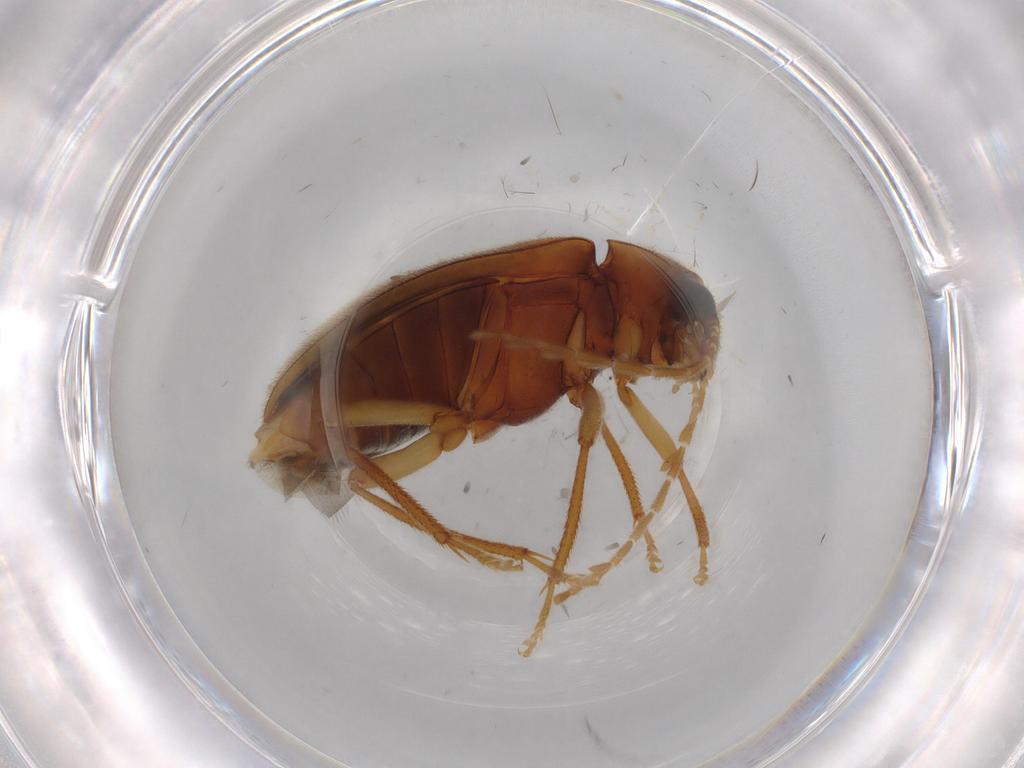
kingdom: Animalia
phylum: Arthropoda
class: Insecta
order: Coleoptera
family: Ptilodactylidae
